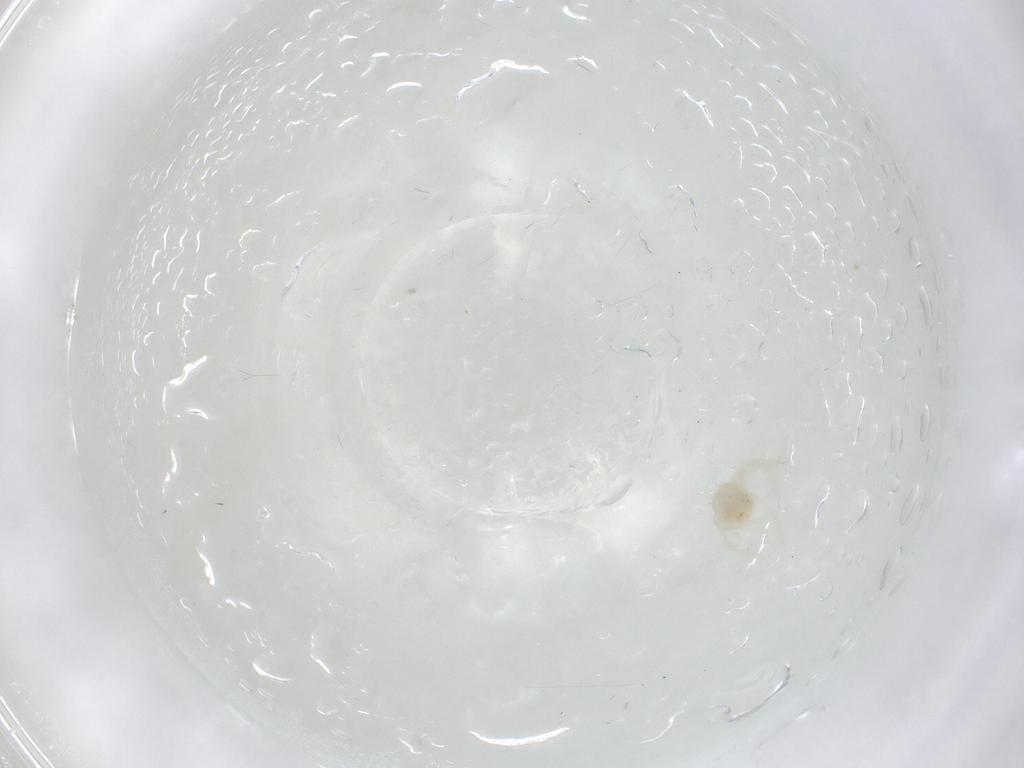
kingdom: Animalia
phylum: Arthropoda
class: Arachnida
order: Trombidiformes
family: Anystidae
